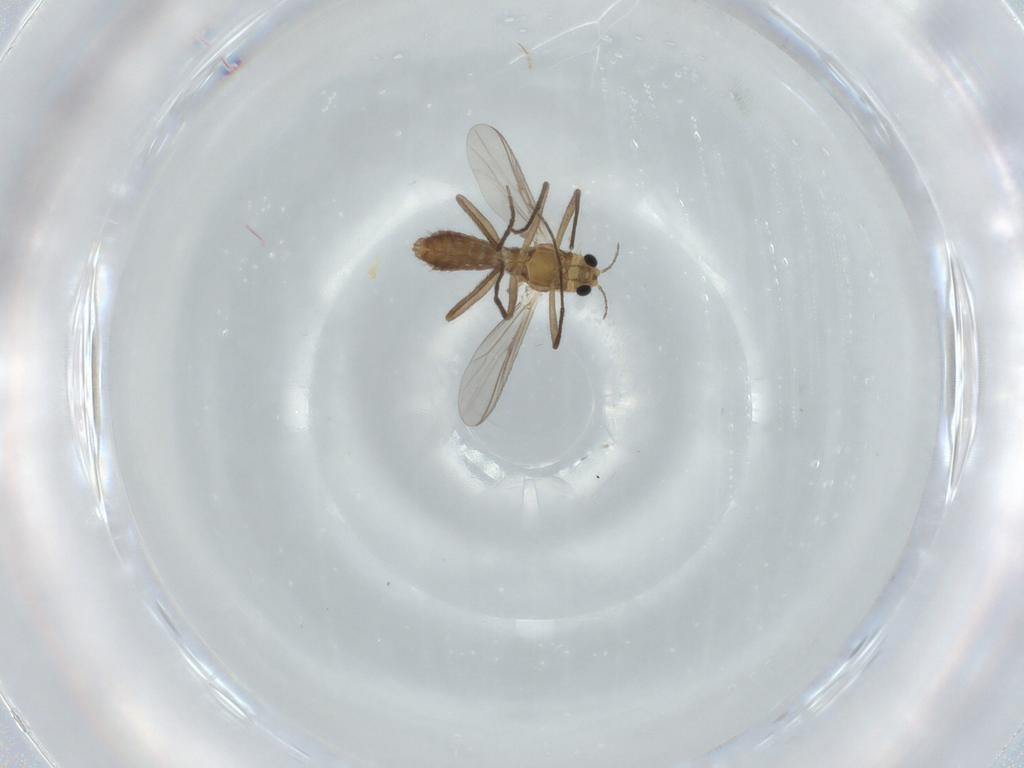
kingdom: Animalia
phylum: Arthropoda
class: Insecta
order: Diptera
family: Chironomidae
